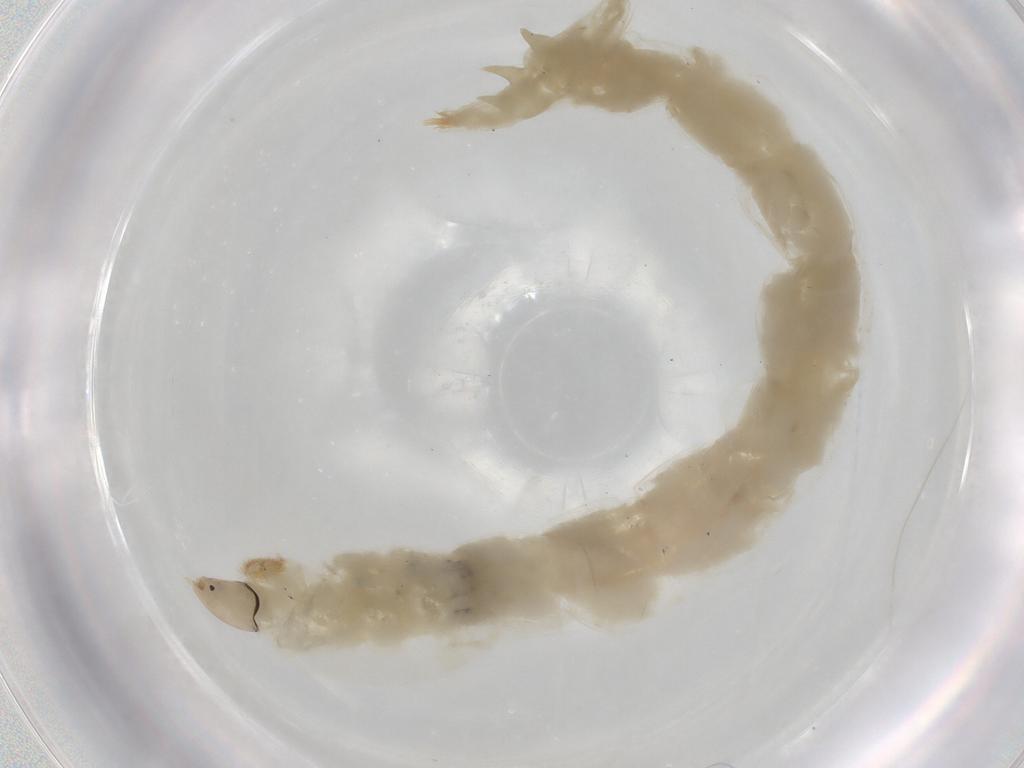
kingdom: Animalia
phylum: Arthropoda
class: Insecta
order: Diptera
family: Chironomidae
